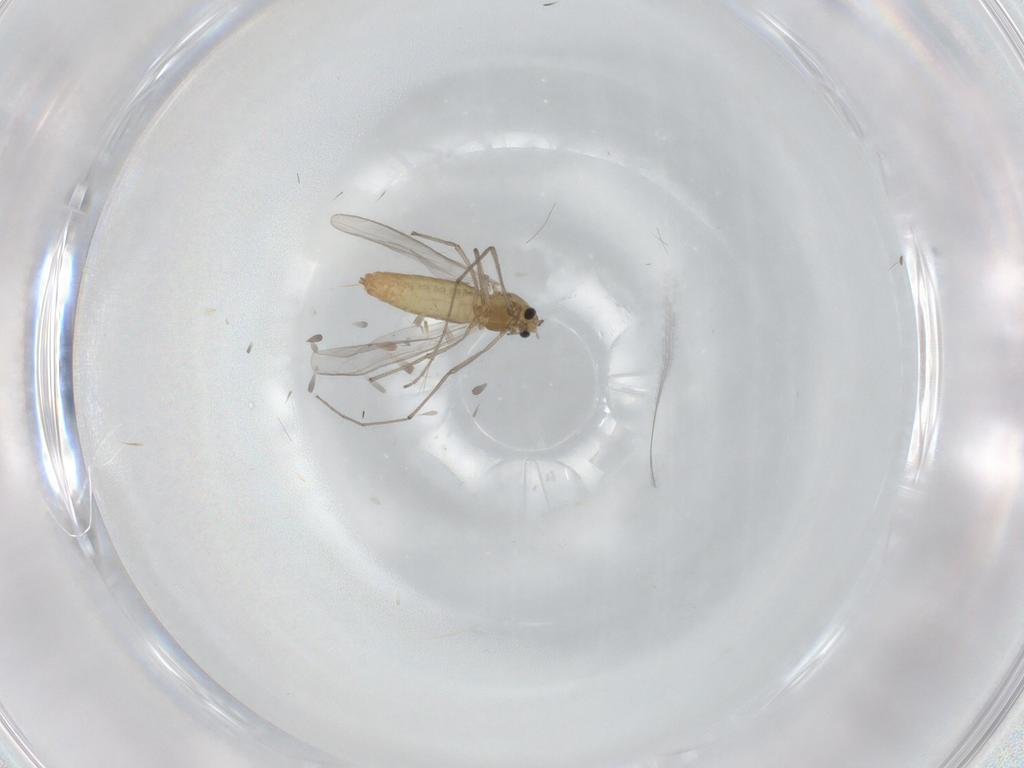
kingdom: Animalia
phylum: Arthropoda
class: Insecta
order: Diptera
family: Chironomidae
